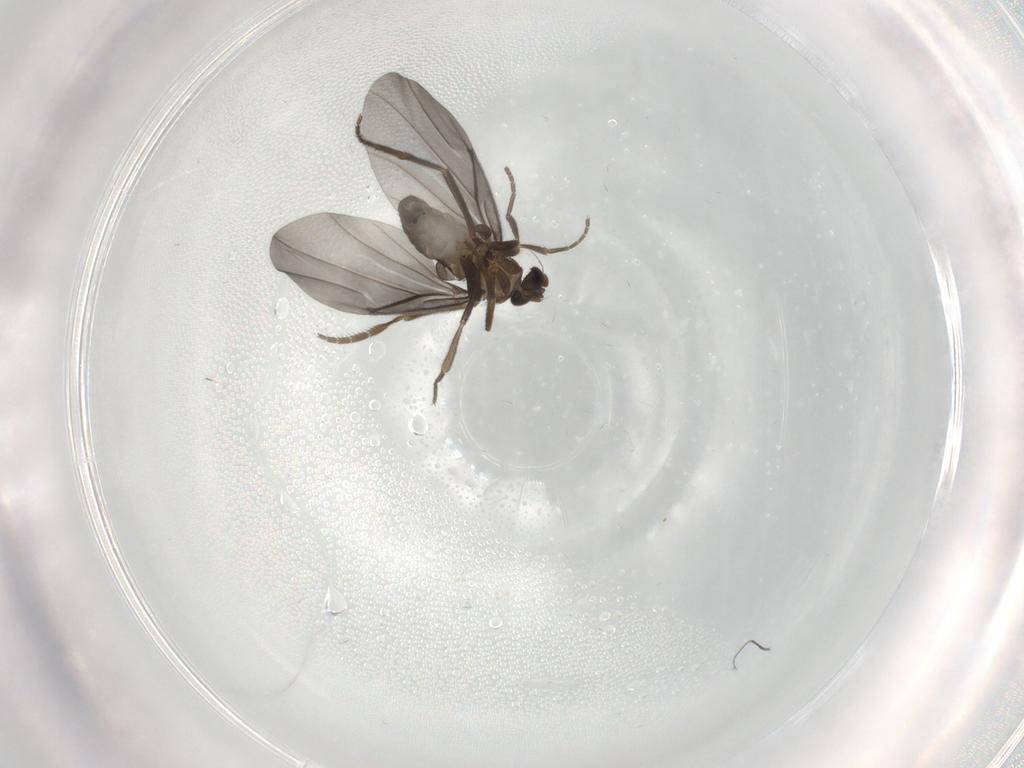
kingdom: Animalia
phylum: Arthropoda
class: Insecta
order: Diptera
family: Phoridae
